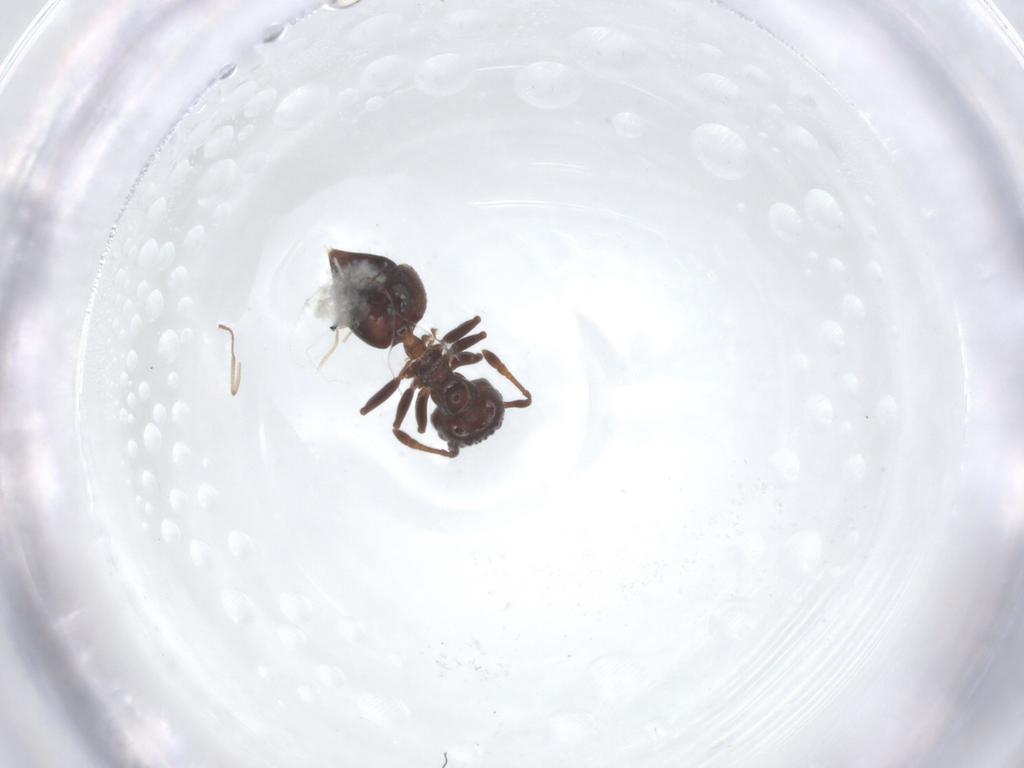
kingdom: Animalia
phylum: Arthropoda
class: Insecta
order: Hymenoptera
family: Formicidae
